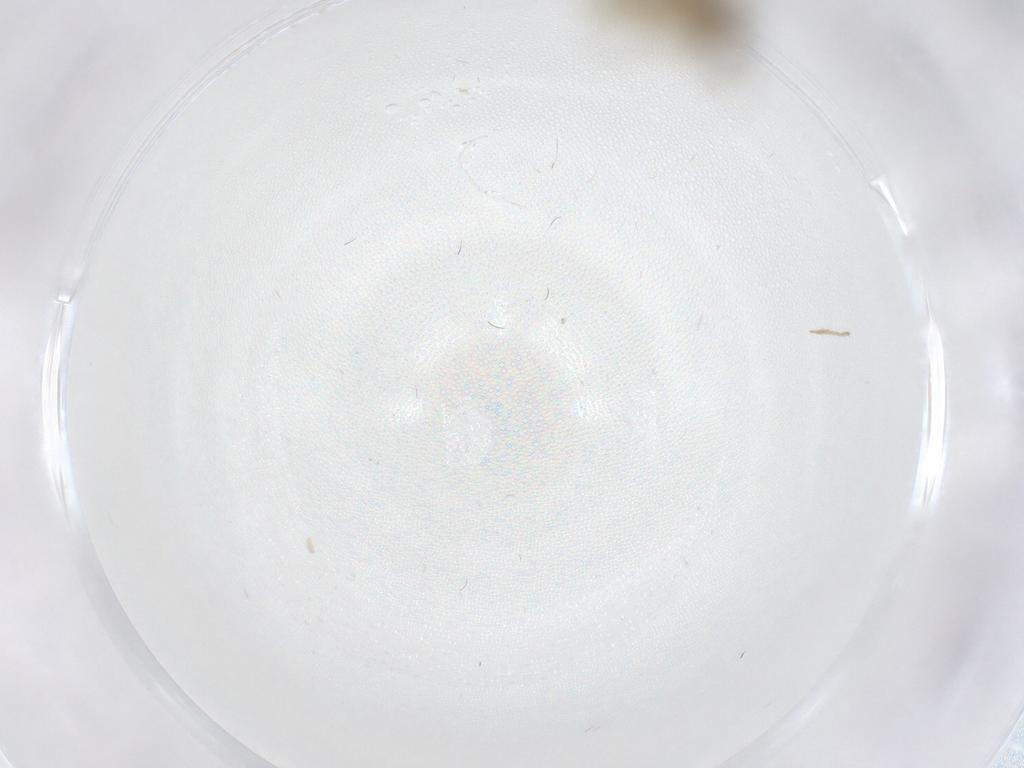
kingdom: Animalia
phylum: Arthropoda
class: Insecta
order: Diptera
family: Chironomidae
